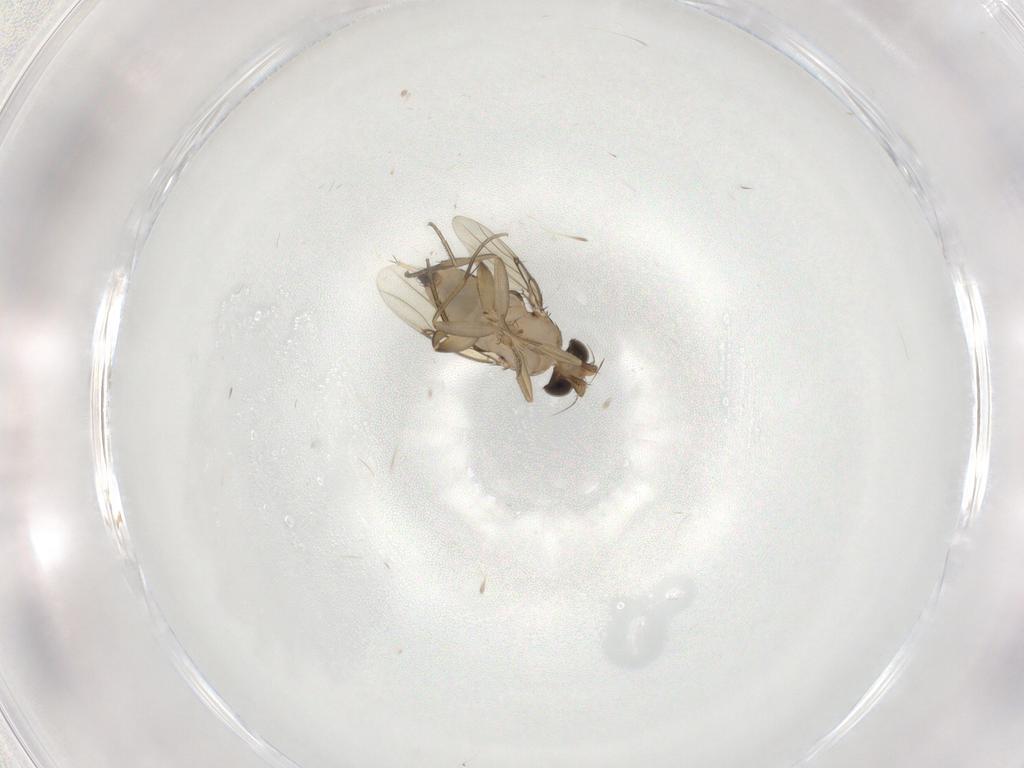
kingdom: Animalia
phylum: Arthropoda
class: Insecta
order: Diptera
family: Phoridae
